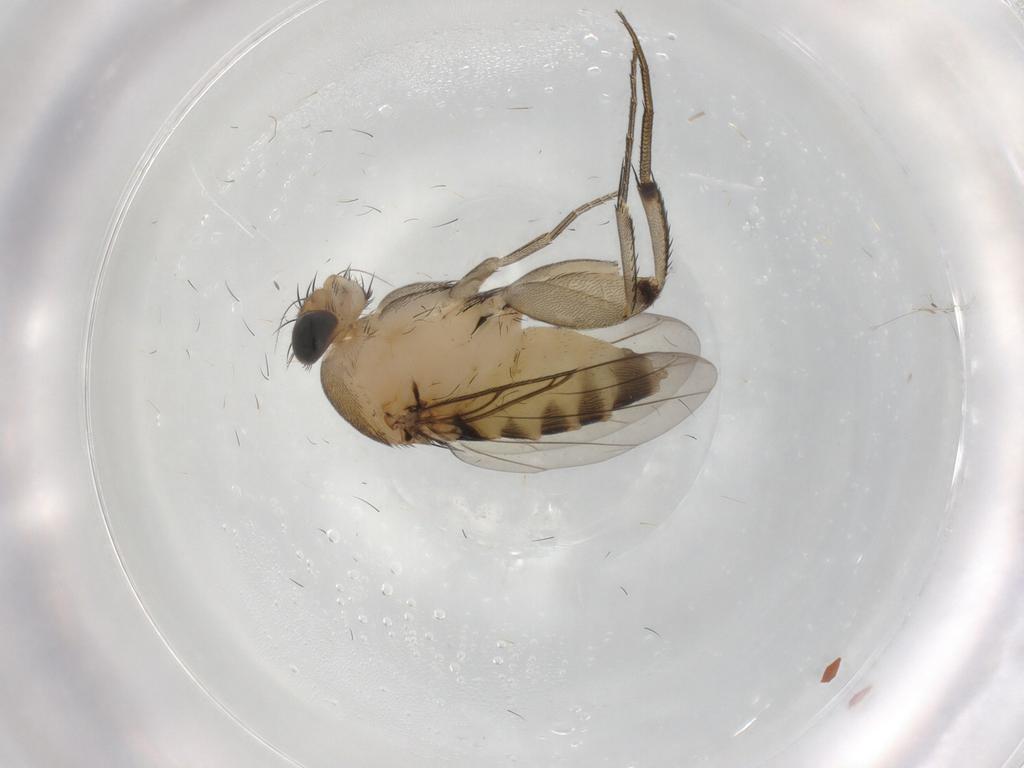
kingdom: Animalia
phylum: Arthropoda
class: Insecta
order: Diptera
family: Phoridae
